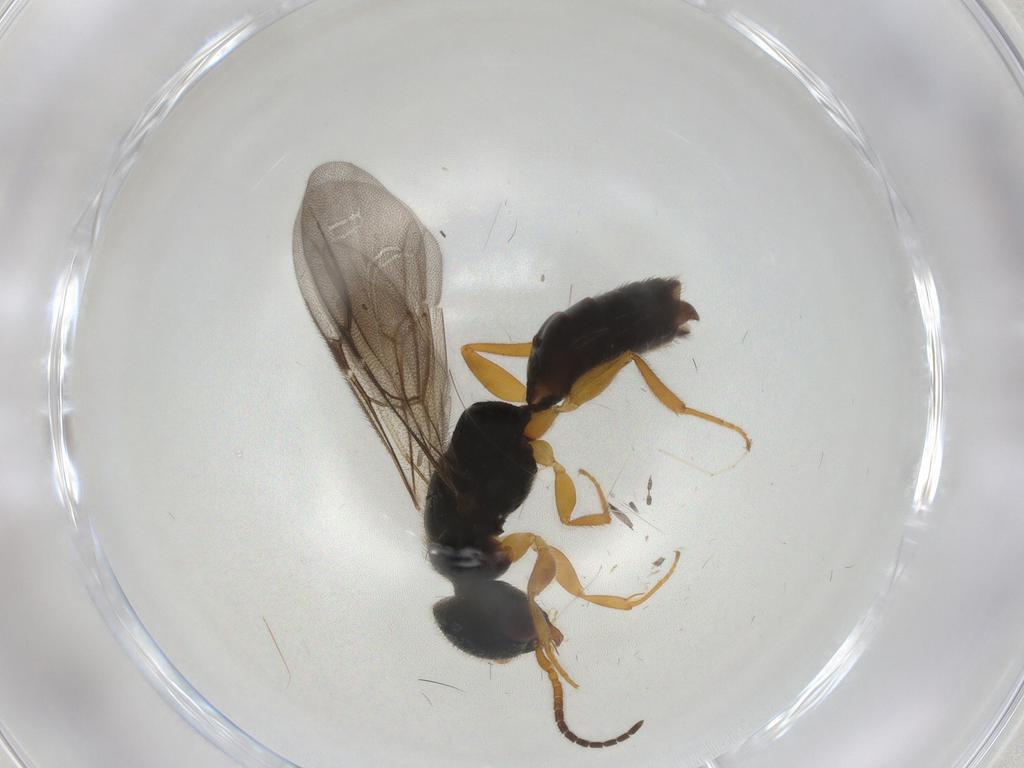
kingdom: Animalia
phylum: Arthropoda
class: Insecta
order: Hymenoptera
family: Bethylidae
